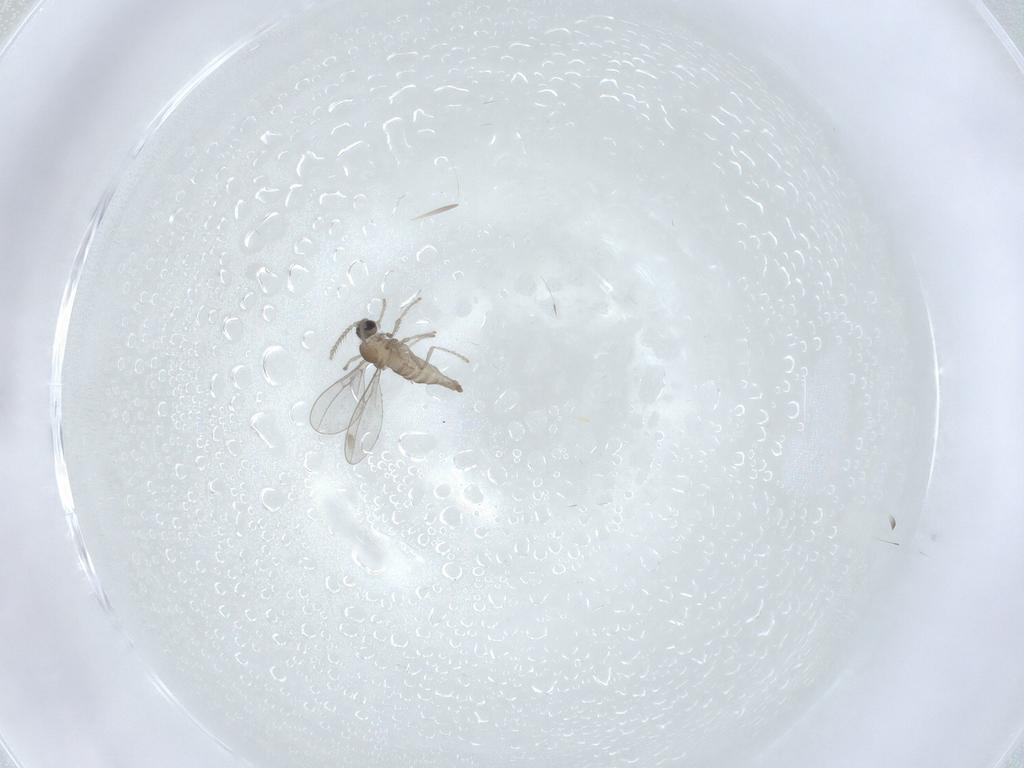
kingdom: Animalia
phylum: Arthropoda
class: Insecta
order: Diptera
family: Cecidomyiidae
